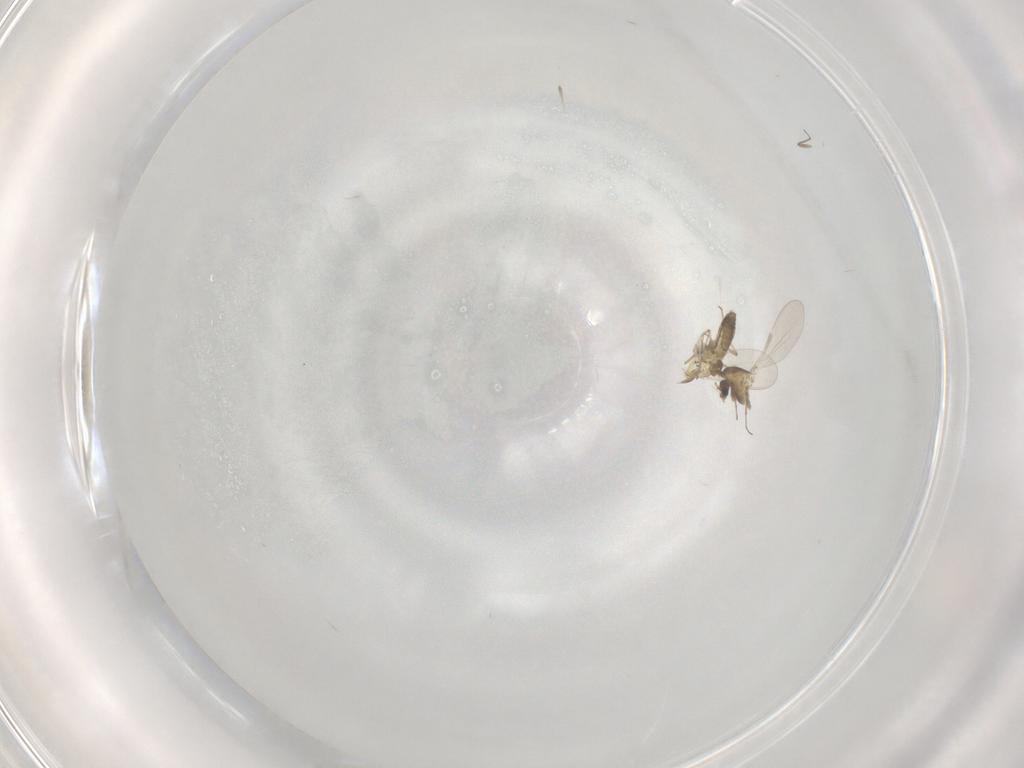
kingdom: Animalia
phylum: Arthropoda
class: Insecta
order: Diptera
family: Chironomidae
